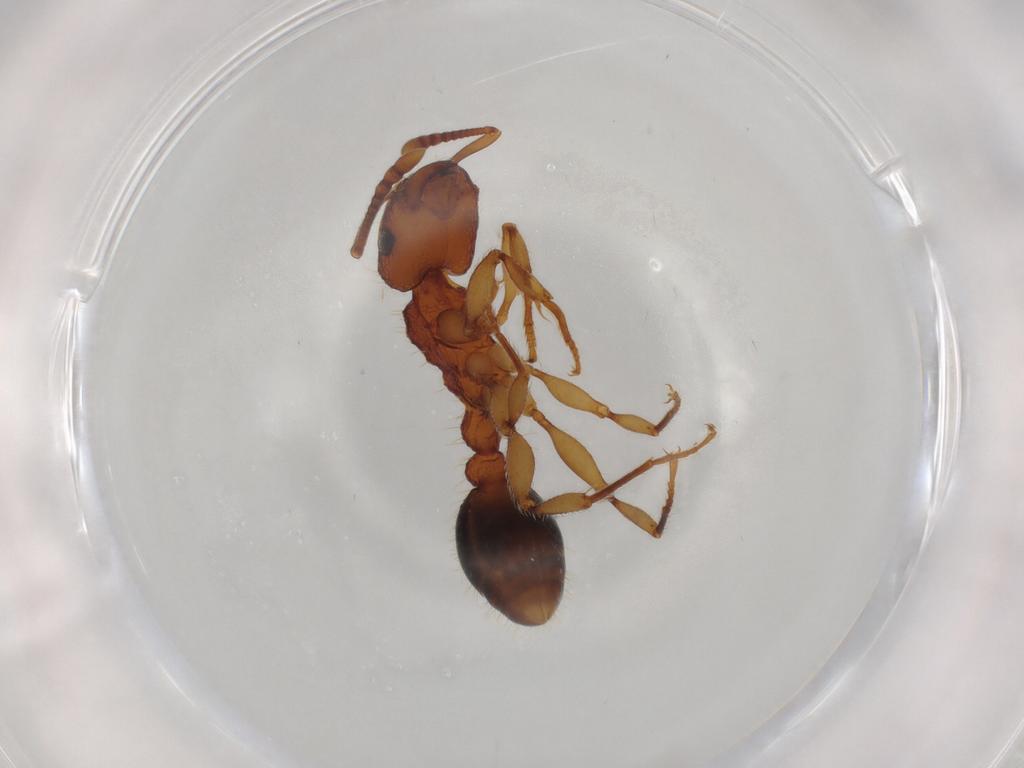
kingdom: Animalia
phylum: Arthropoda
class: Insecta
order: Hymenoptera
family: Formicidae
